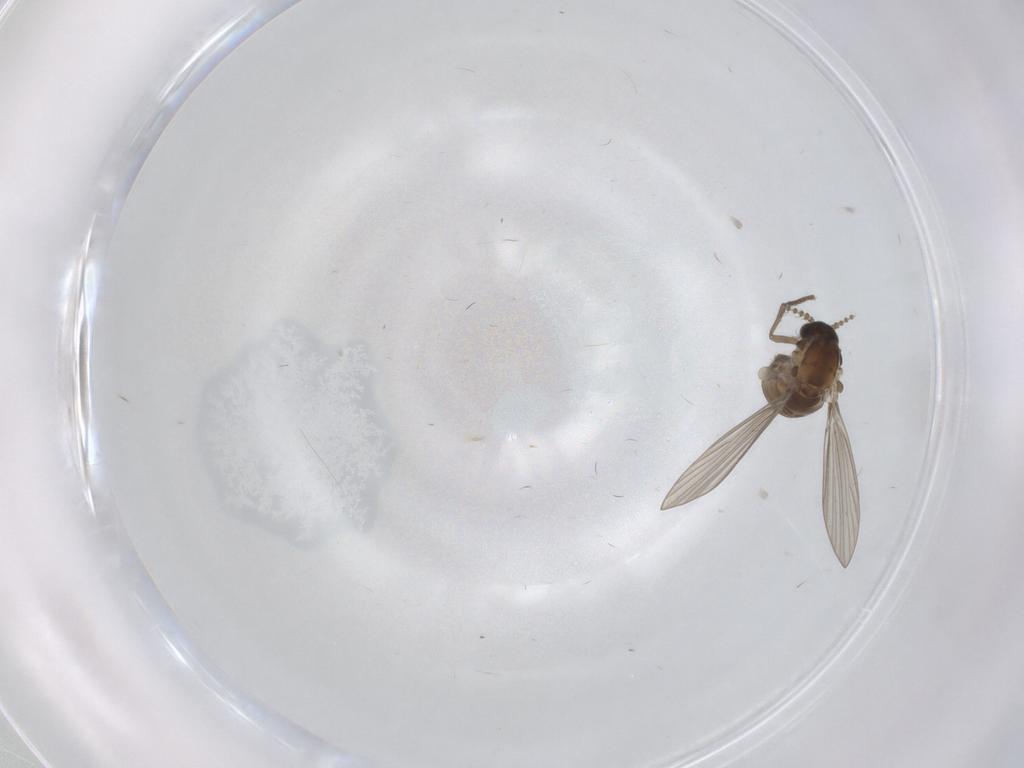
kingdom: Animalia
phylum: Arthropoda
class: Insecta
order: Diptera
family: Psychodidae
